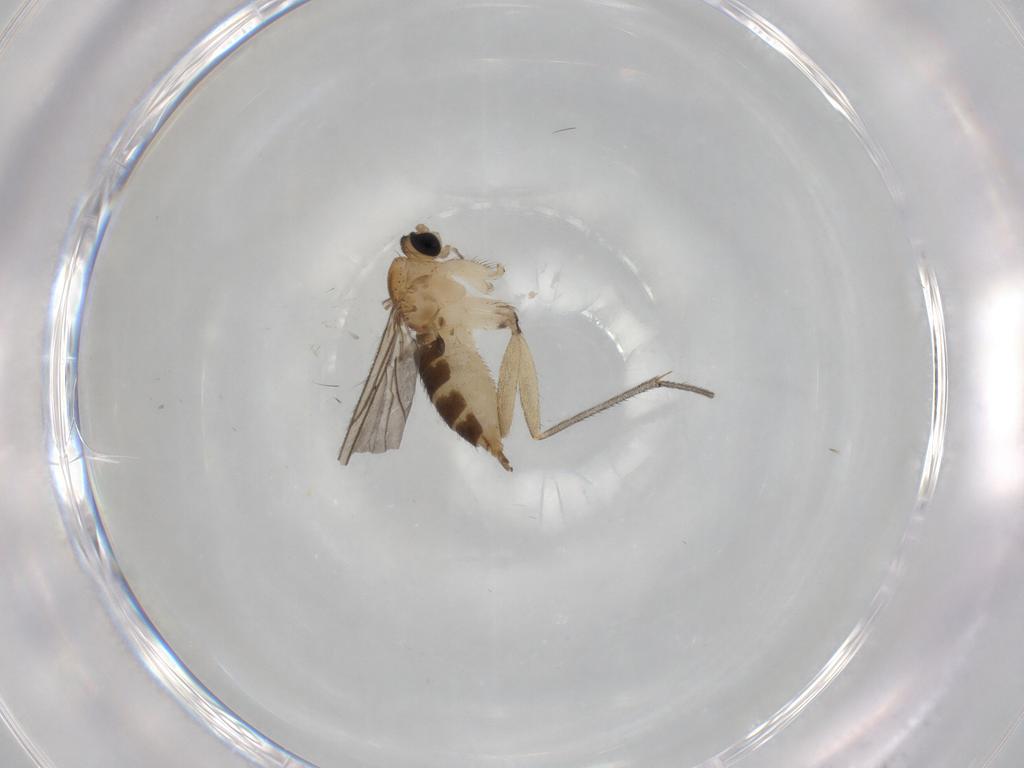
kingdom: Animalia
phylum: Arthropoda
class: Insecta
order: Diptera
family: Sciaridae
